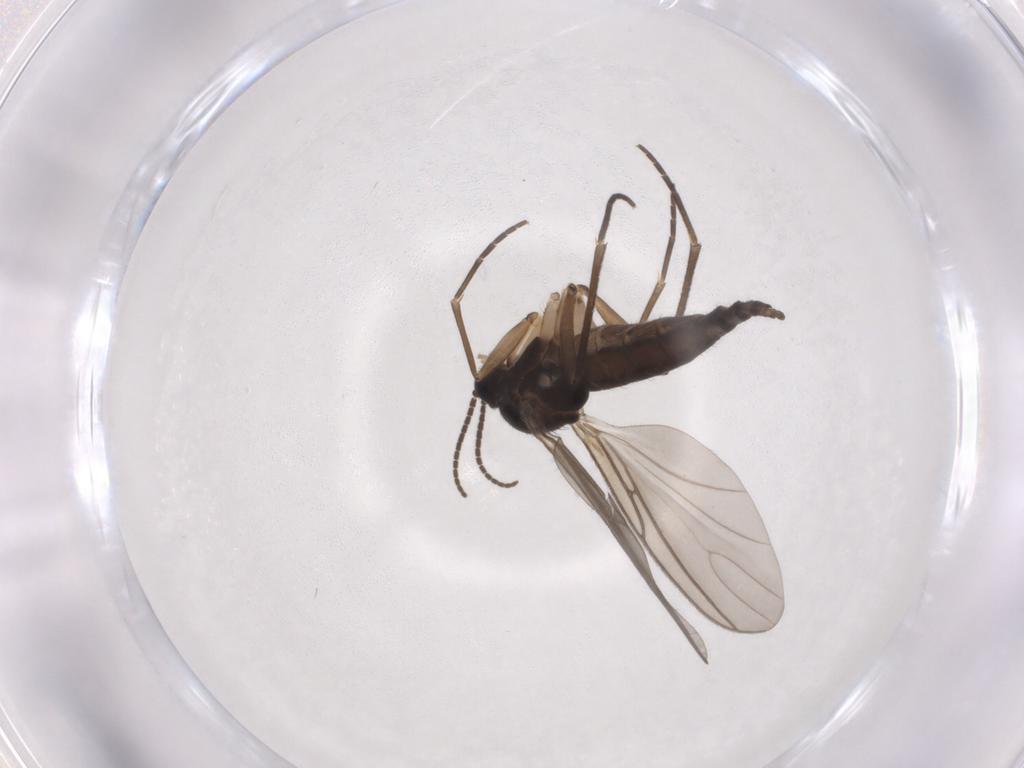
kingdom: Animalia
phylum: Arthropoda
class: Insecta
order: Diptera
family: Sciaridae
